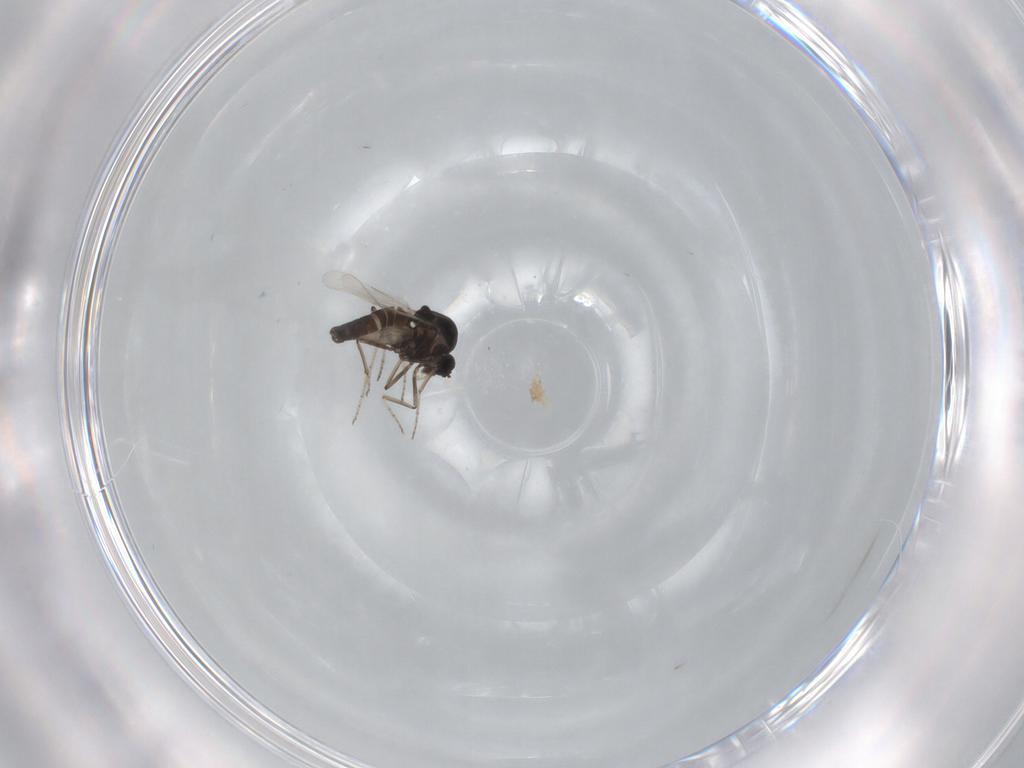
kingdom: Animalia
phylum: Arthropoda
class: Insecta
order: Diptera
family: Ceratopogonidae
